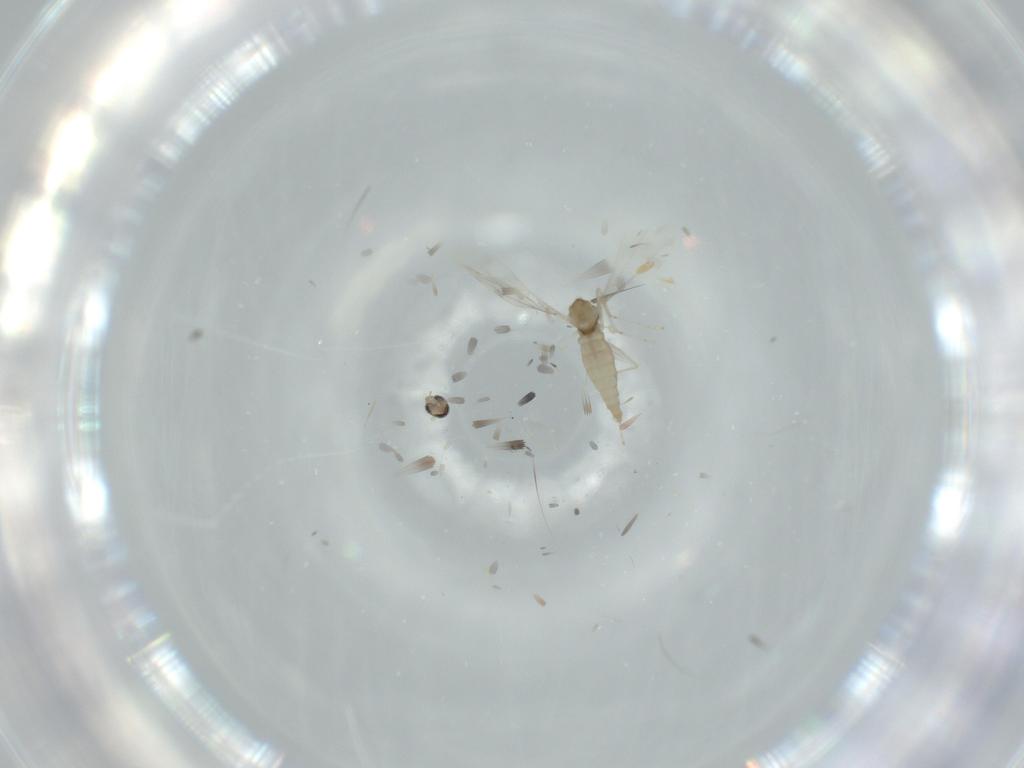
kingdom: Animalia
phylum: Arthropoda
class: Insecta
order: Diptera
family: Cecidomyiidae
